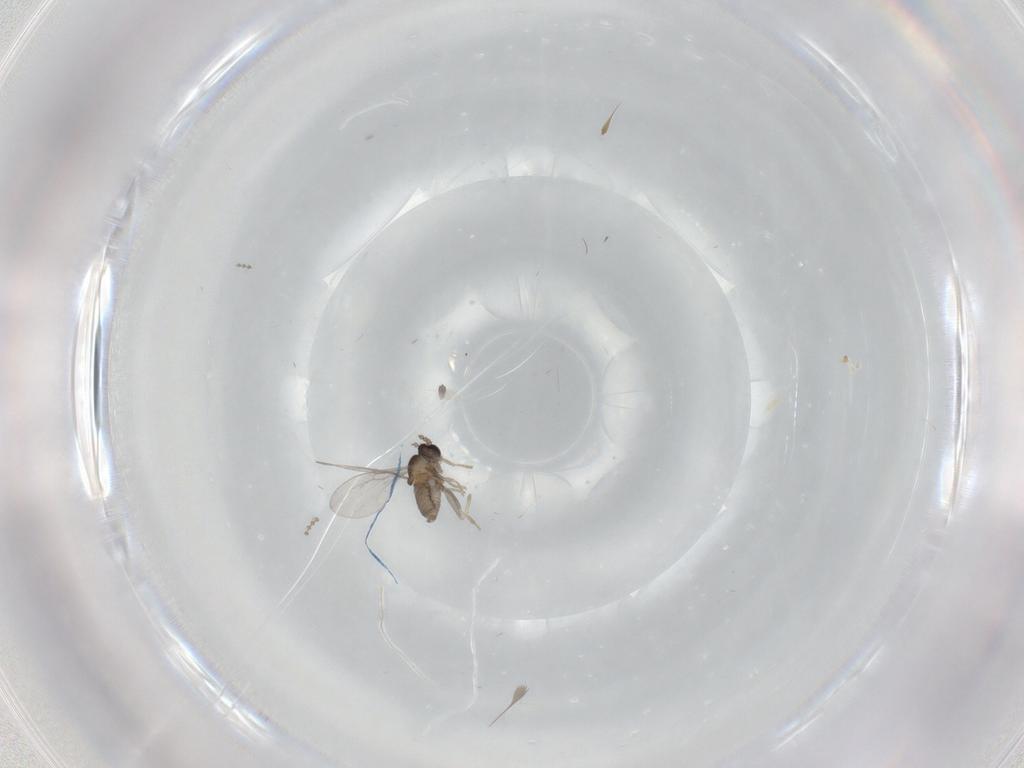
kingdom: Animalia
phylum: Arthropoda
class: Insecta
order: Diptera
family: Cecidomyiidae
